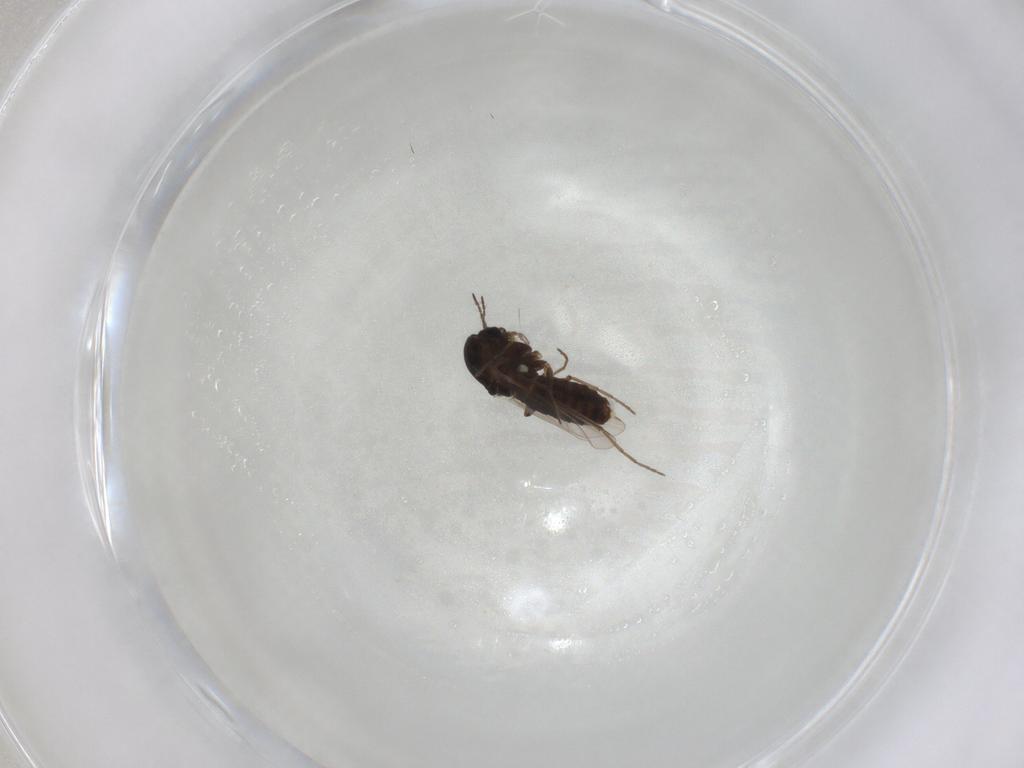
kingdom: Animalia
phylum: Arthropoda
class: Insecta
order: Diptera
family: Chironomidae
